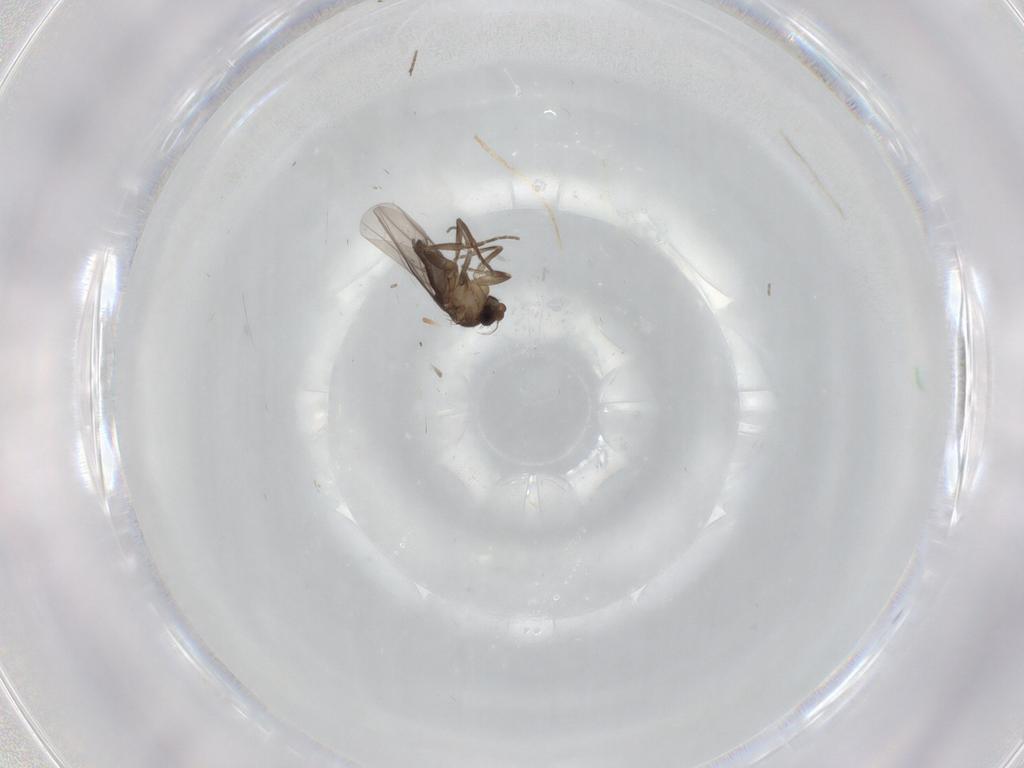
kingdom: Animalia
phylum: Arthropoda
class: Insecta
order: Diptera
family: Phoridae
